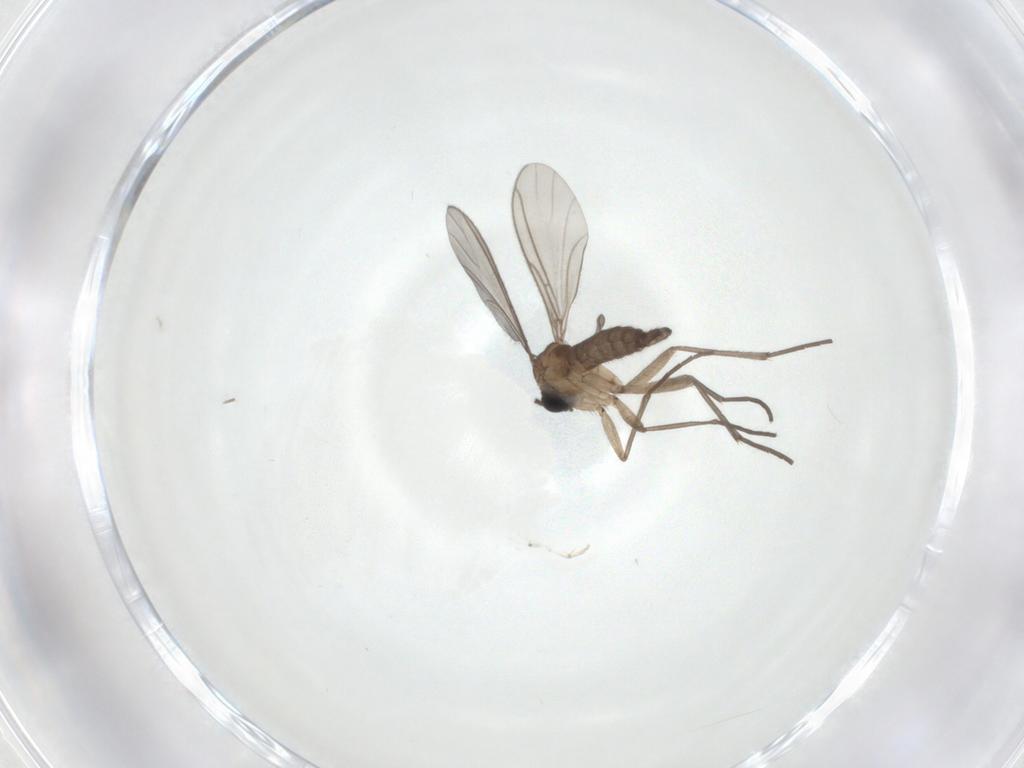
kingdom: Animalia
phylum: Arthropoda
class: Insecta
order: Diptera
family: Sciaridae
